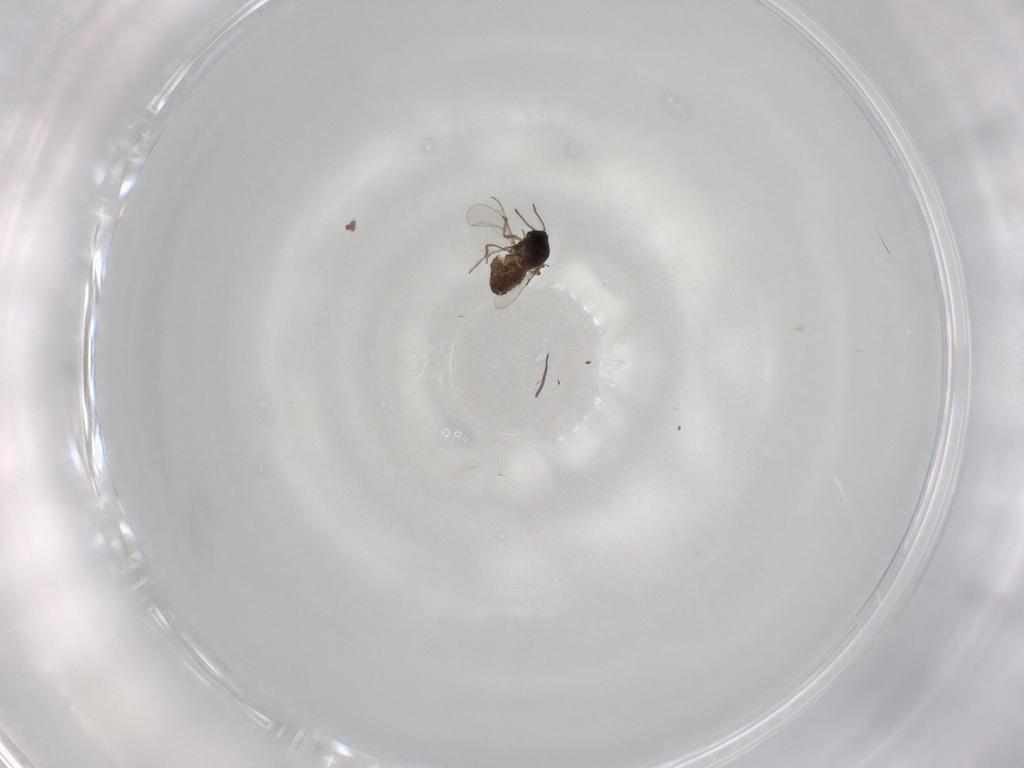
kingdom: Animalia
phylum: Arthropoda
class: Insecta
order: Diptera
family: Ceratopogonidae
